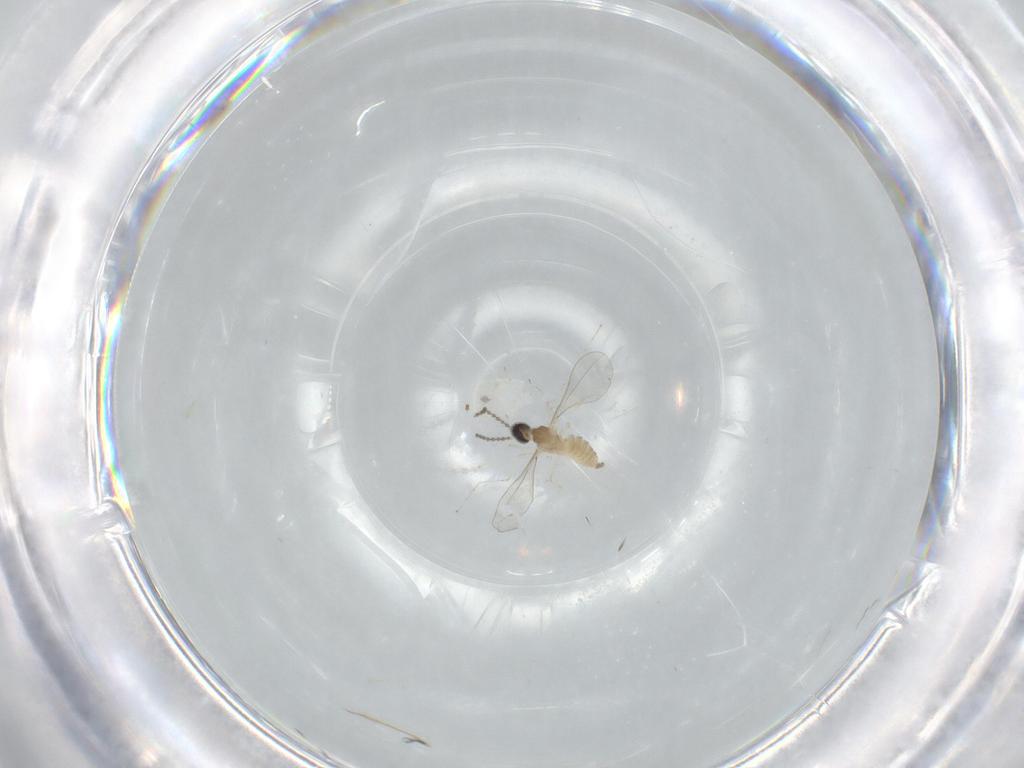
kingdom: Animalia
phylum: Arthropoda
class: Insecta
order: Diptera
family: Cecidomyiidae
